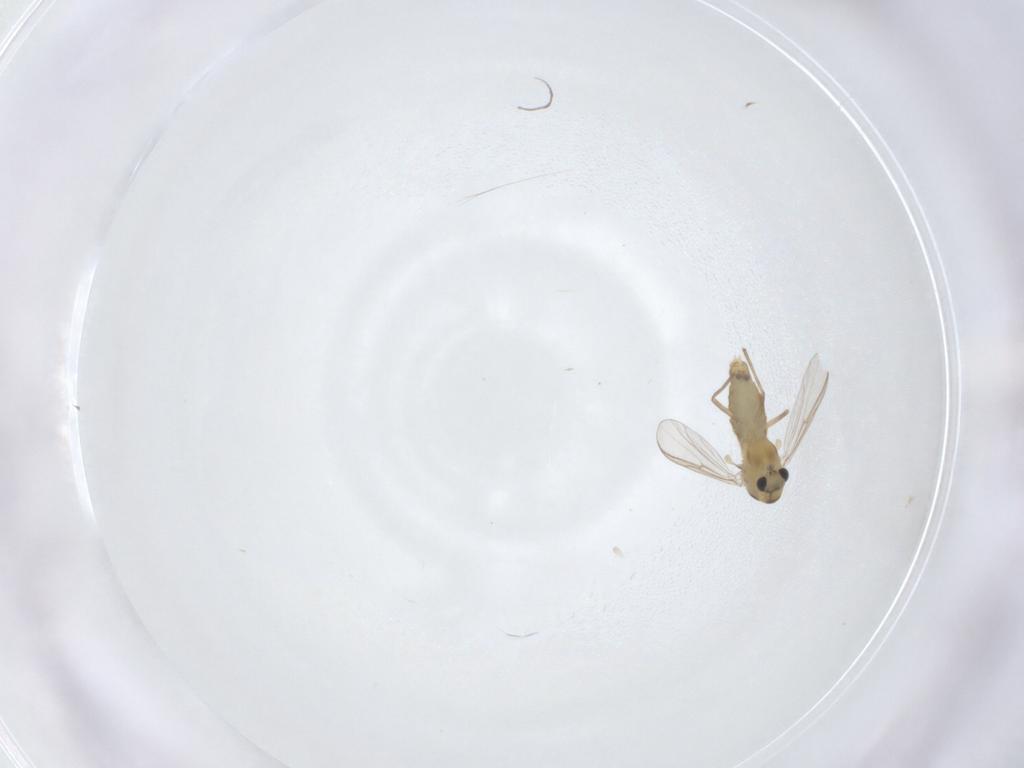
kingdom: Animalia
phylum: Arthropoda
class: Insecta
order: Diptera
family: Chironomidae
